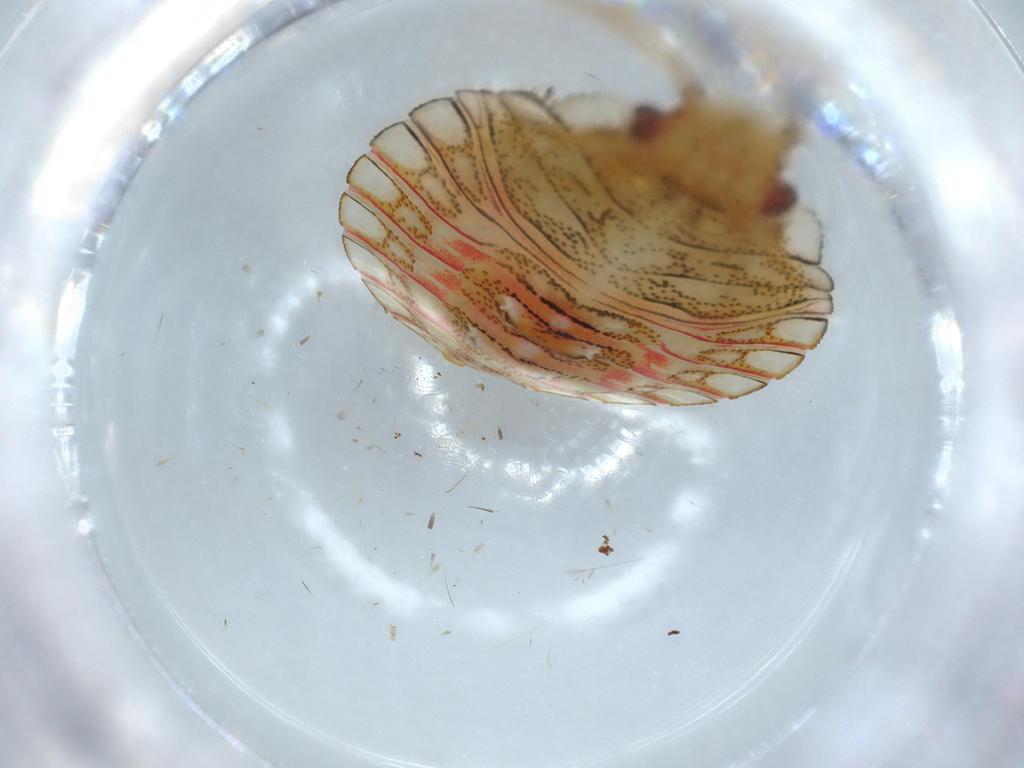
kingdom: Animalia
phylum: Arthropoda
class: Insecta
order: Hemiptera
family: Pentatomidae
